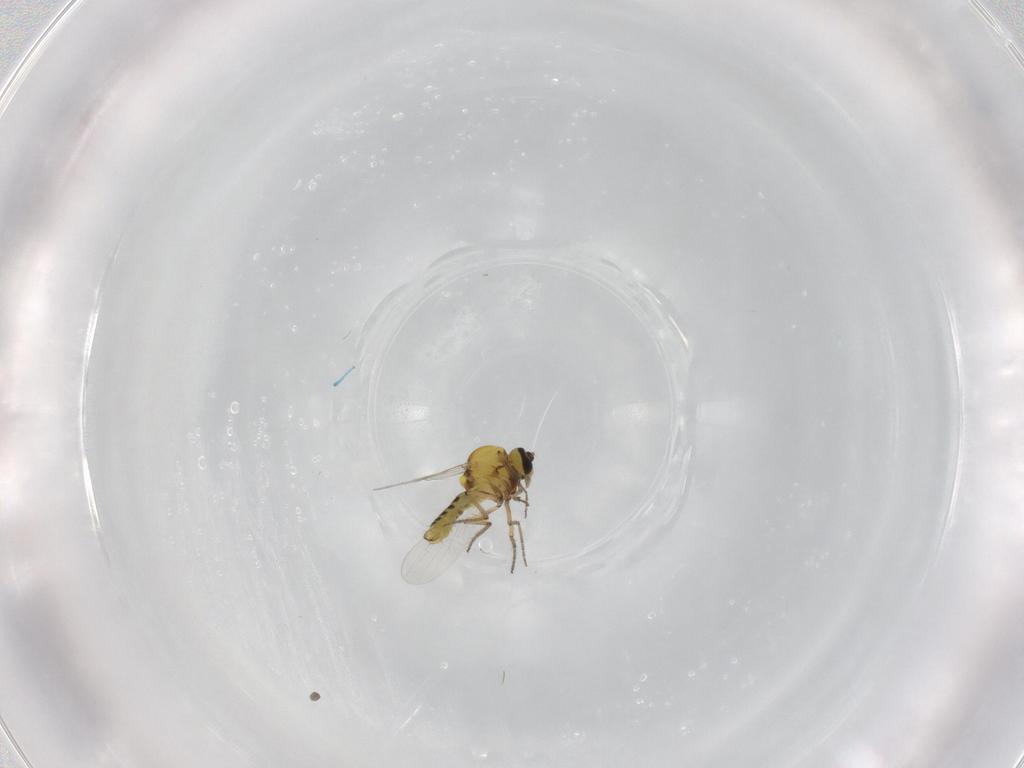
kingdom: Animalia
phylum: Arthropoda
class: Insecta
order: Diptera
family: Ceratopogonidae
